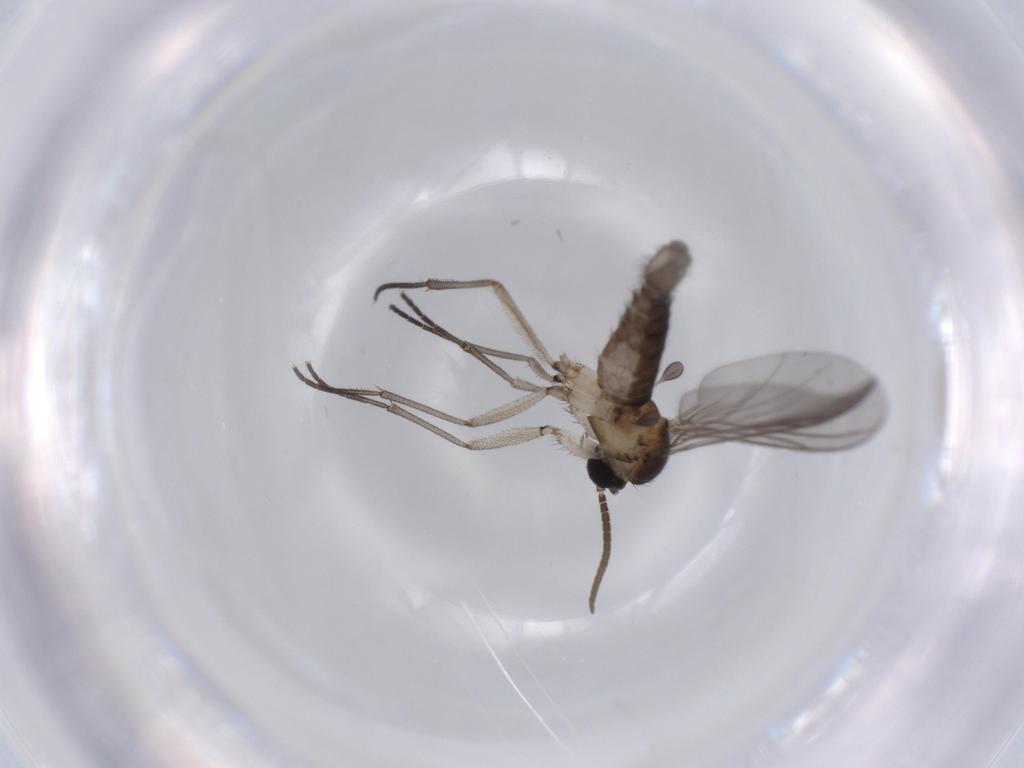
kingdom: Animalia
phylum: Arthropoda
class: Insecta
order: Diptera
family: Sciaridae
